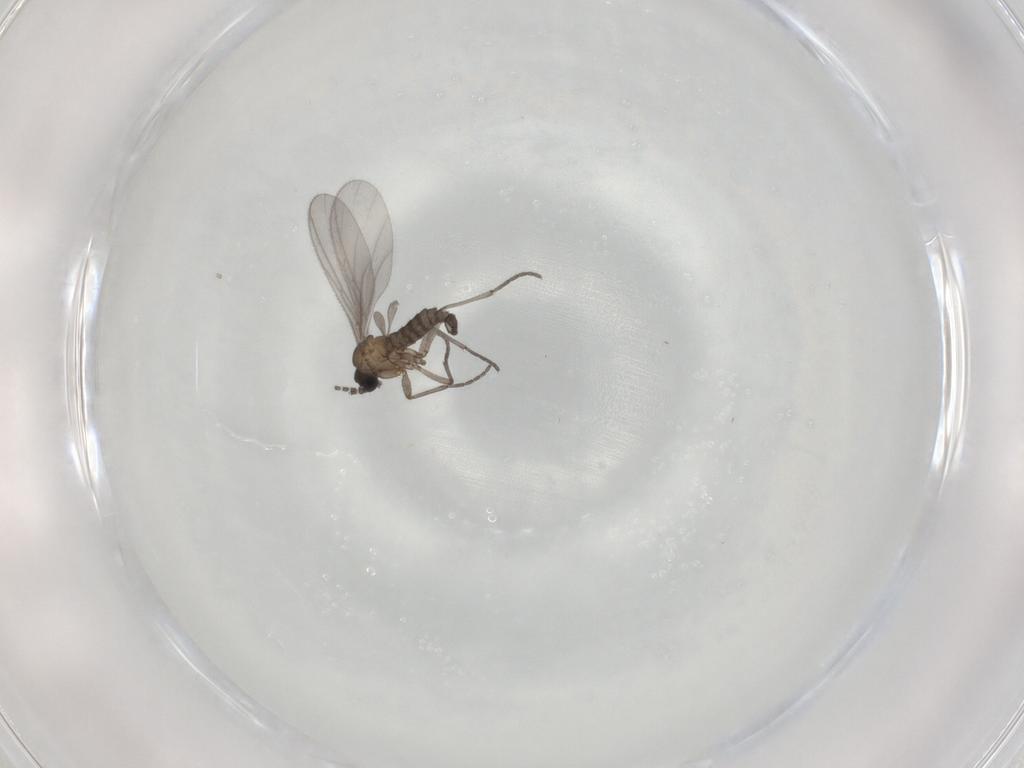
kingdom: Animalia
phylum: Arthropoda
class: Insecta
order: Diptera
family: Sciaridae
